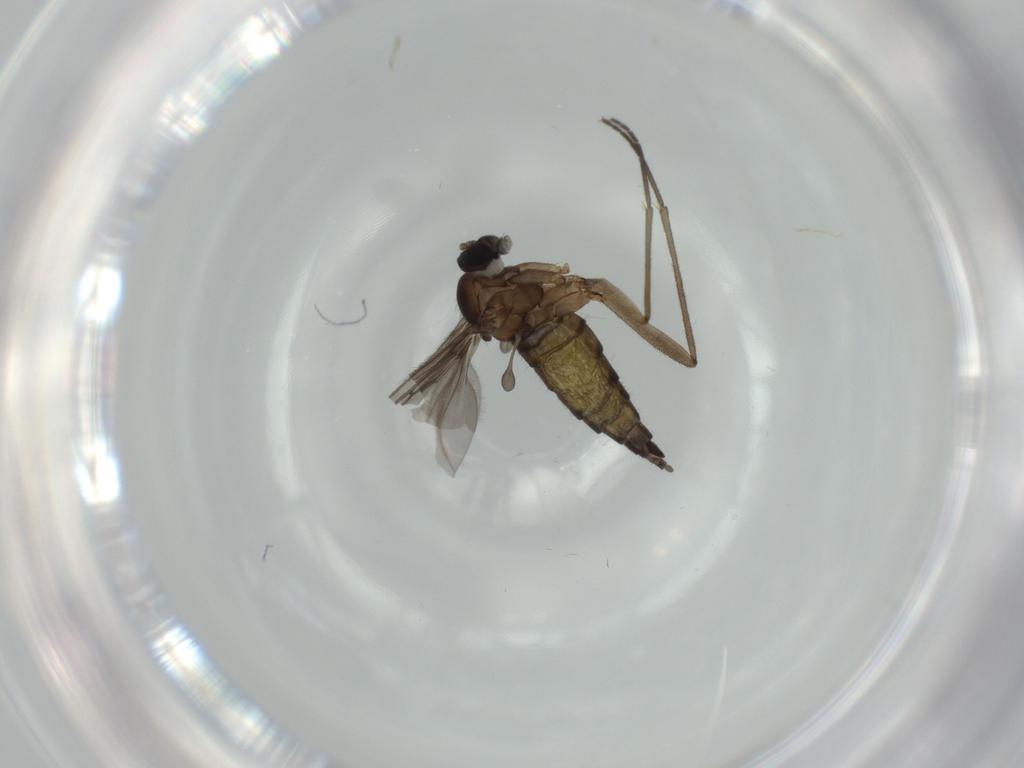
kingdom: Animalia
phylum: Arthropoda
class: Insecta
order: Diptera
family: Sciaridae
